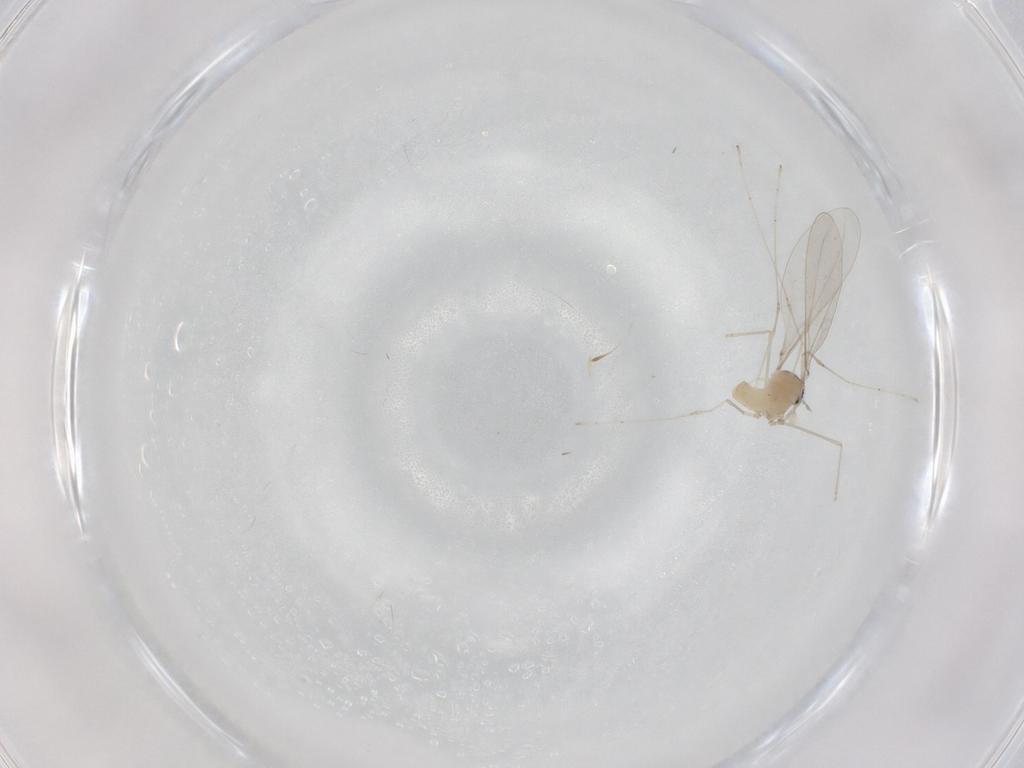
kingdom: Animalia
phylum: Arthropoda
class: Insecta
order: Diptera
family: Cecidomyiidae
